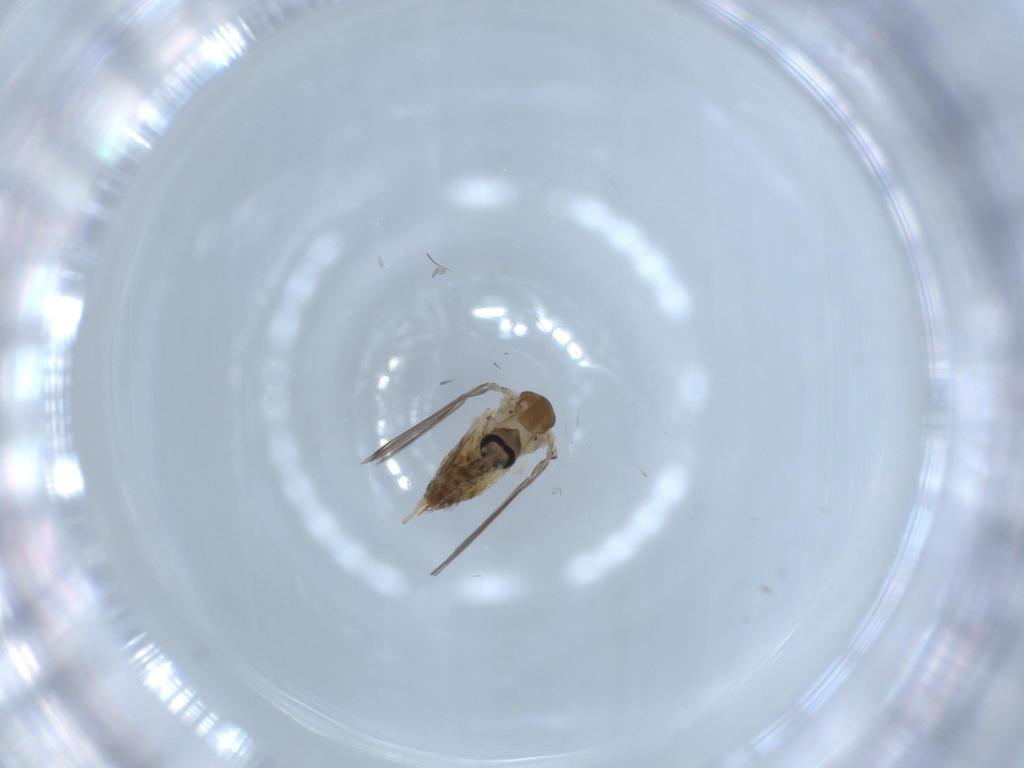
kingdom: Animalia
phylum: Arthropoda
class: Insecta
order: Diptera
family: Psychodidae
